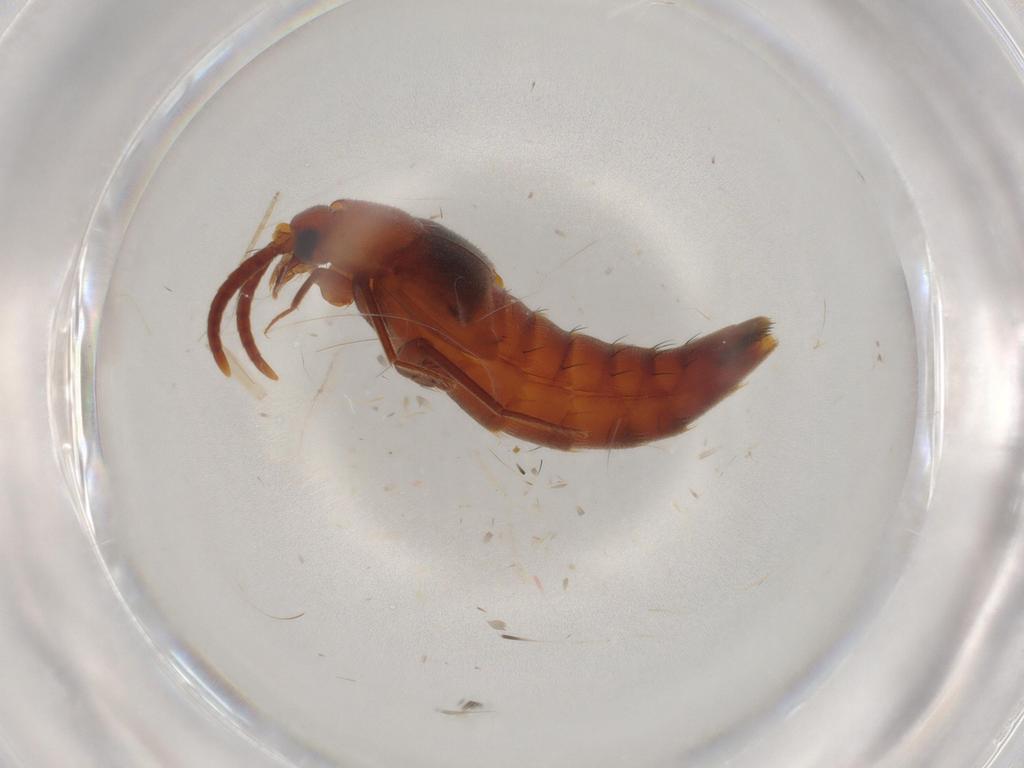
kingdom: Animalia
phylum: Arthropoda
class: Insecta
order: Coleoptera
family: Staphylinidae
